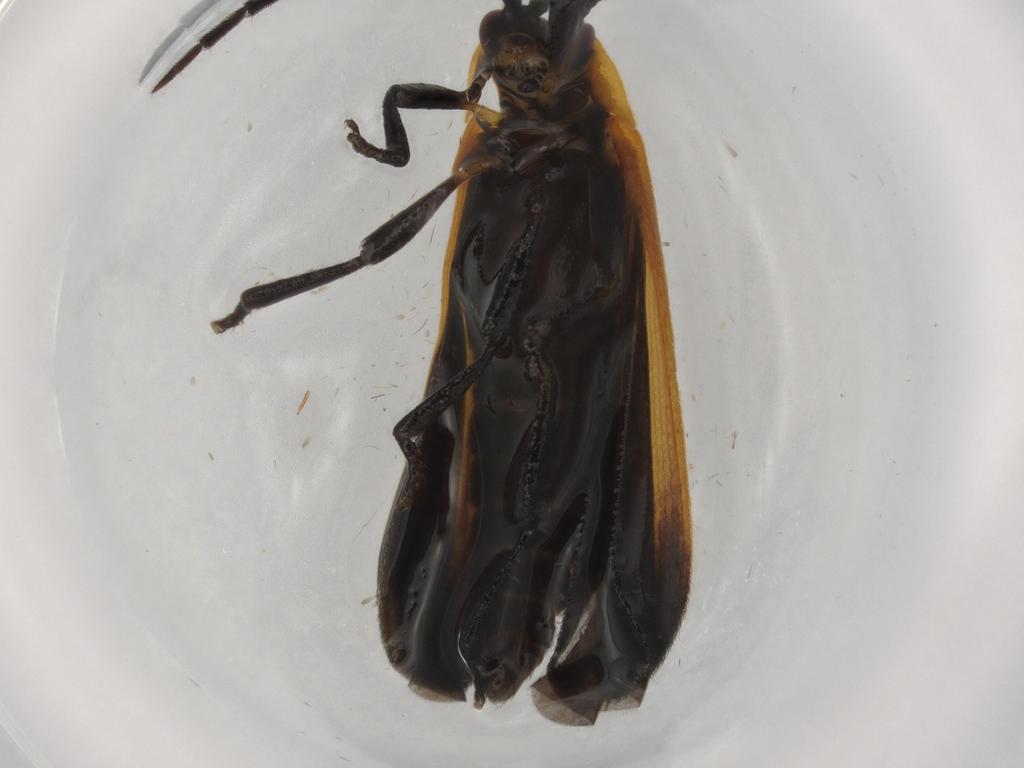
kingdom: Animalia
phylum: Arthropoda
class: Insecta
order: Coleoptera
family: Lycidae
